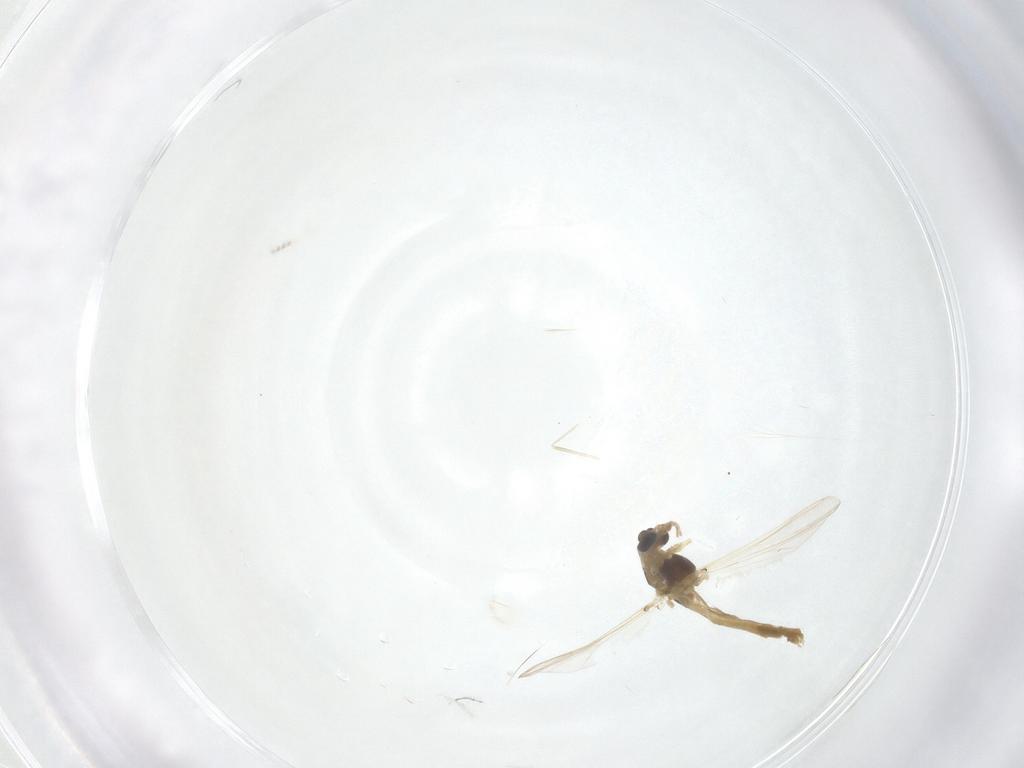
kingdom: Animalia
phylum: Arthropoda
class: Insecta
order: Diptera
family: Chironomidae
